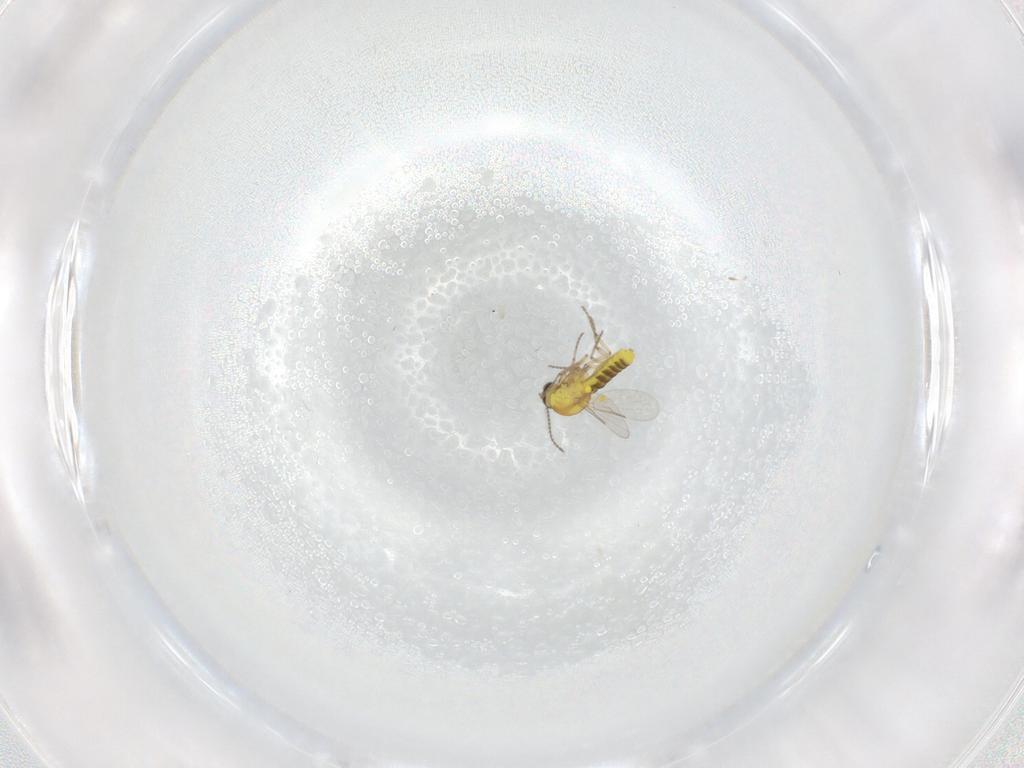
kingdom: Animalia
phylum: Arthropoda
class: Insecta
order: Diptera
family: Ceratopogonidae
